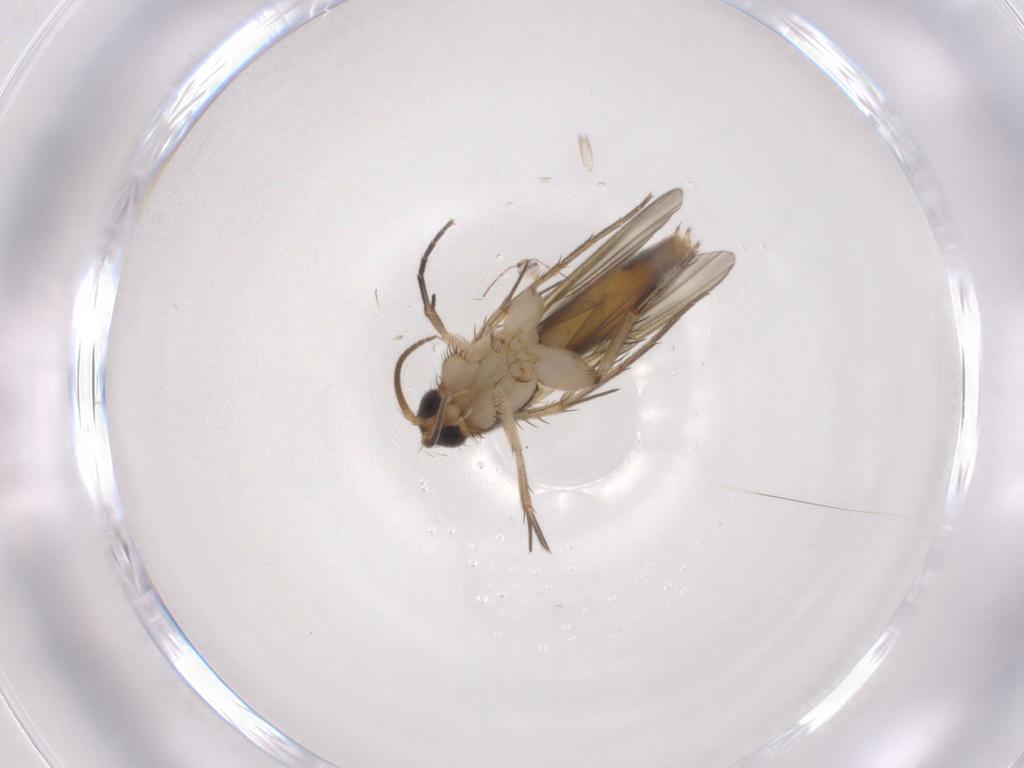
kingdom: Animalia
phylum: Arthropoda
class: Insecta
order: Diptera
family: Mycetophilidae
